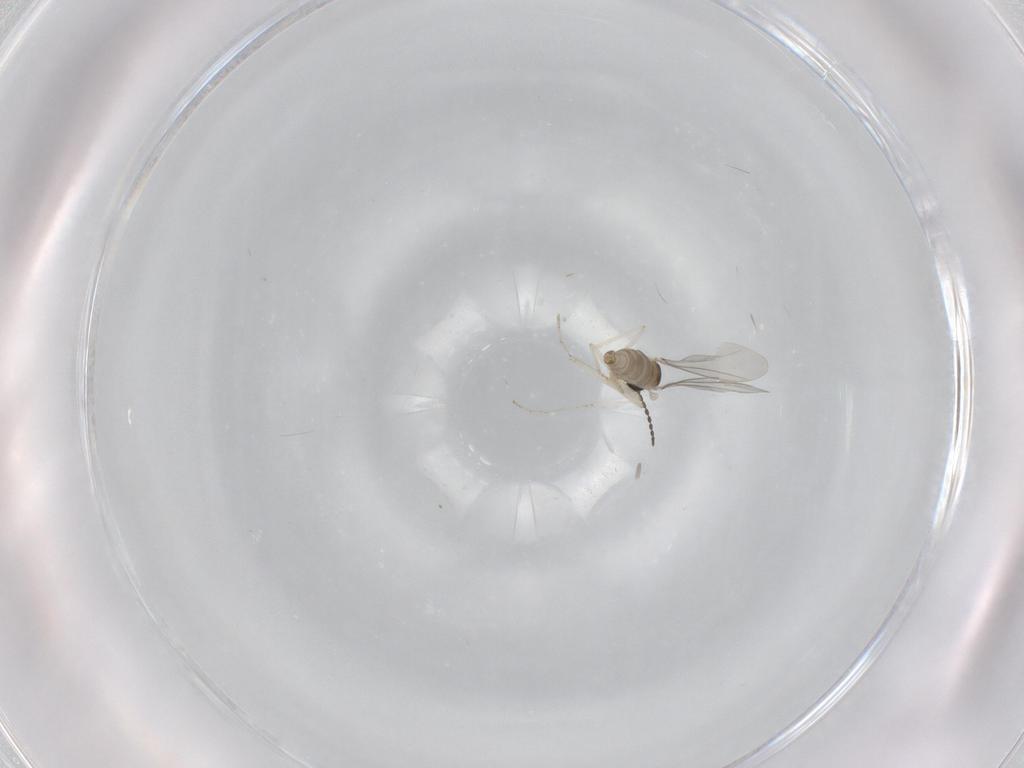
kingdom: Animalia
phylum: Arthropoda
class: Insecta
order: Diptera
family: Cecidomyiidae
